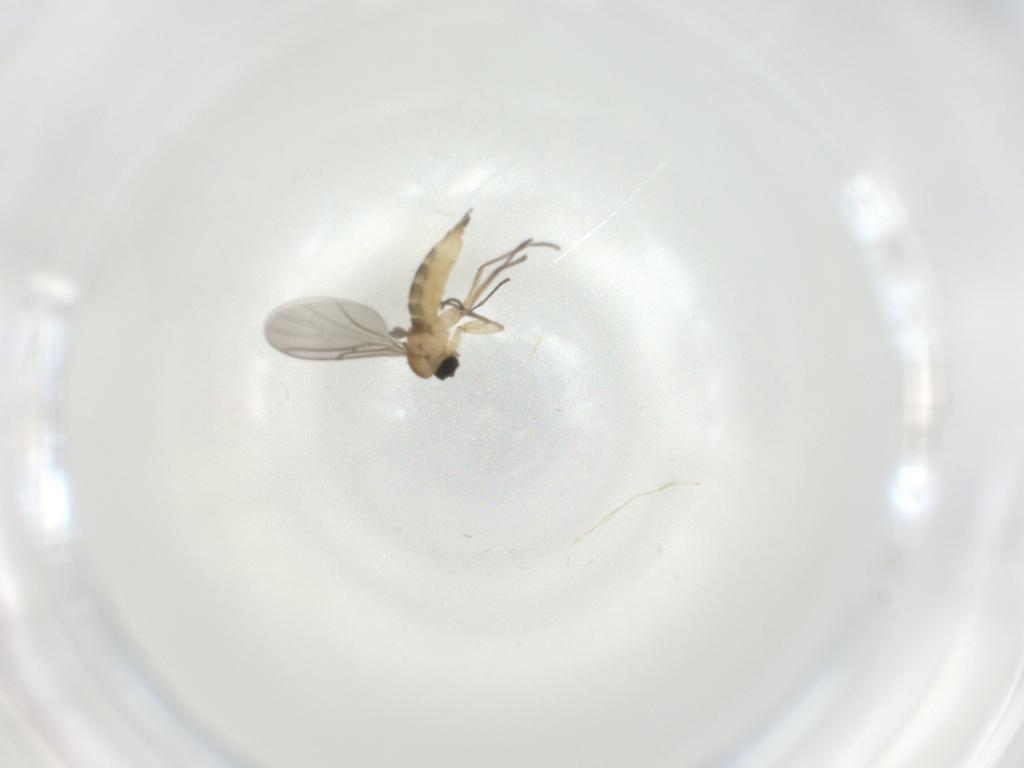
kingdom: Animalia
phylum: Arthropoda
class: Insecta
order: Diptera
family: Sciaridae
